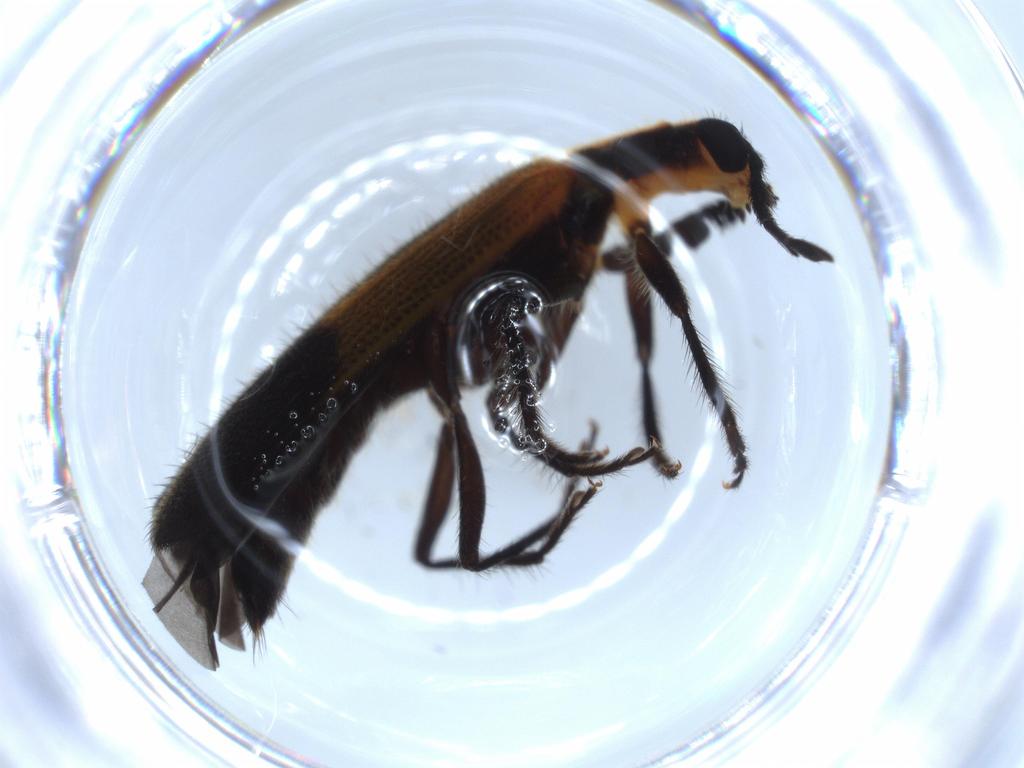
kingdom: Animalia
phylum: Arthropoda
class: Insecta
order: Coleoptera
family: Cleridae
